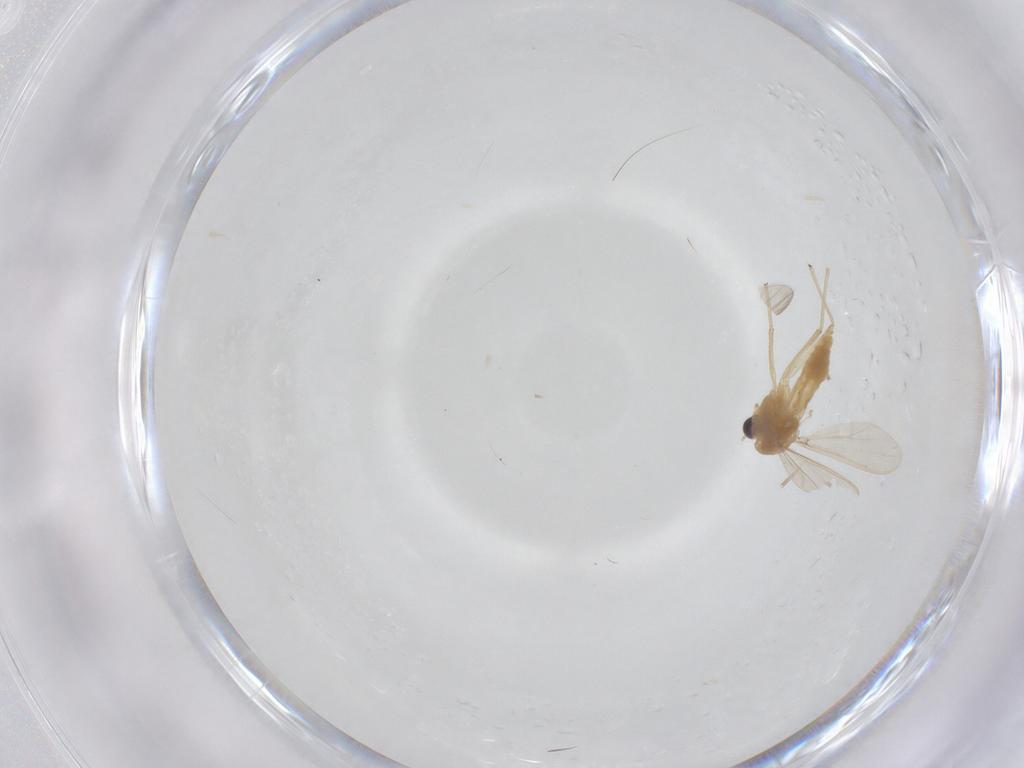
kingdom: Animalia
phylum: Arthropoda
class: Insecta
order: Diptera
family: Chironomidae
